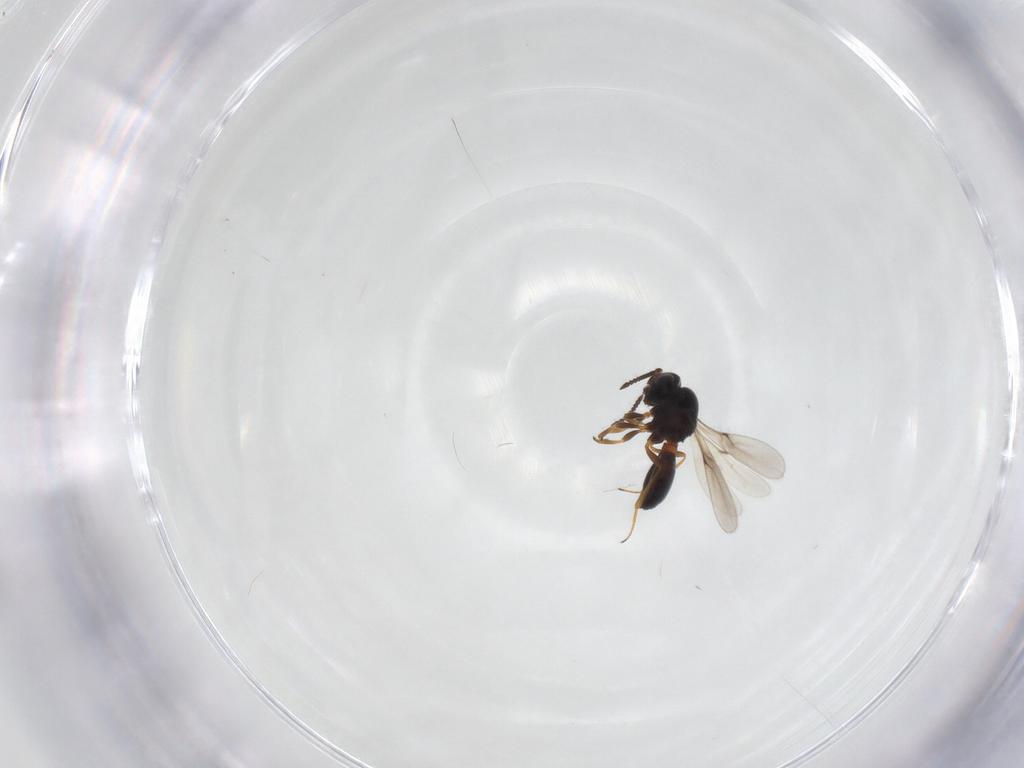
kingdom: Animalia
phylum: Arthropoda
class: Insecta
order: Hymenoptera
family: Scelionidae
